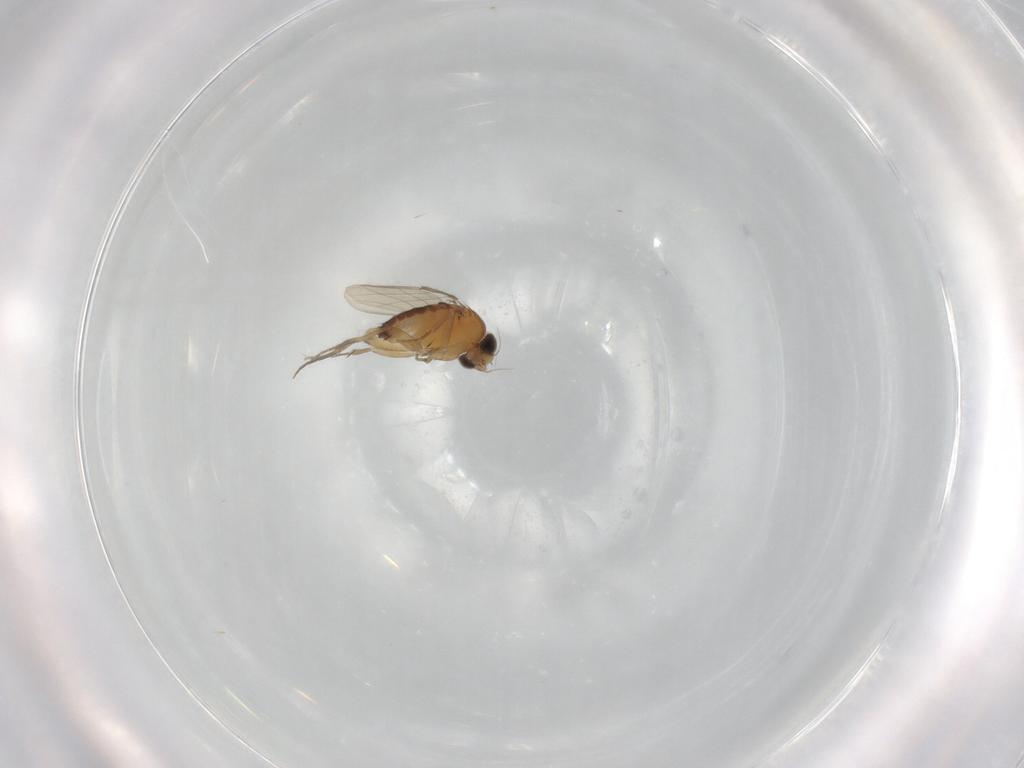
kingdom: Animalia
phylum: Arthropoda
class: Insecta
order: Diptera
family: Phoridae
